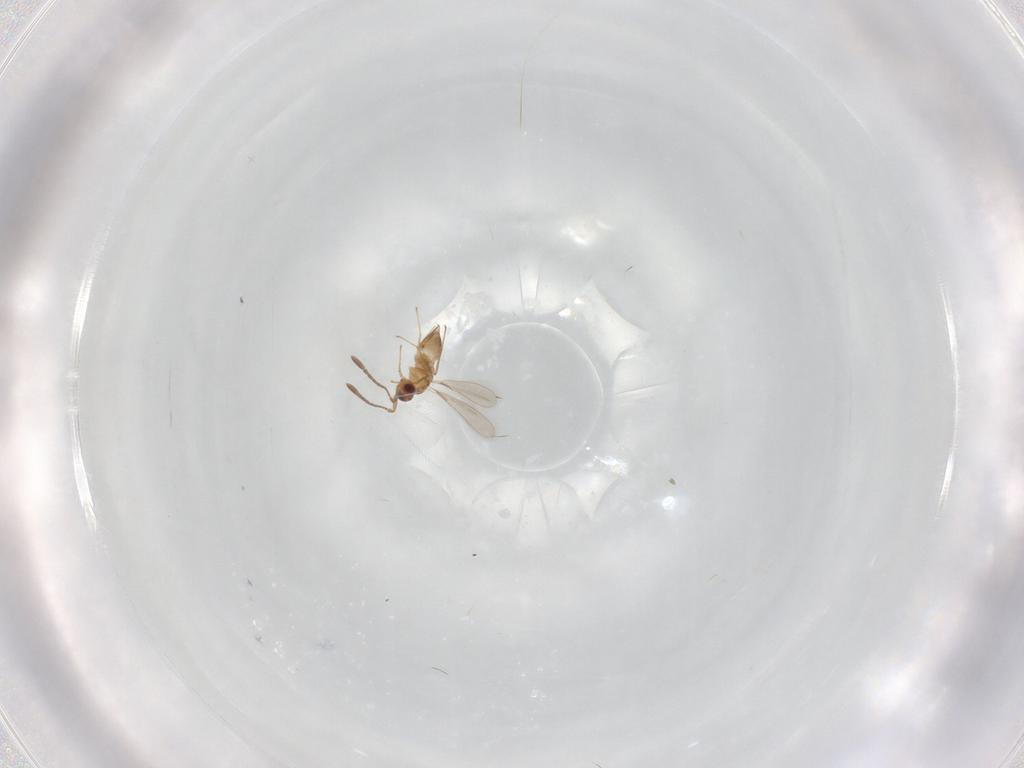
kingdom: Animalia
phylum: Arthropoda
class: Insecta
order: Hymenoptera
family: Mymaridae
